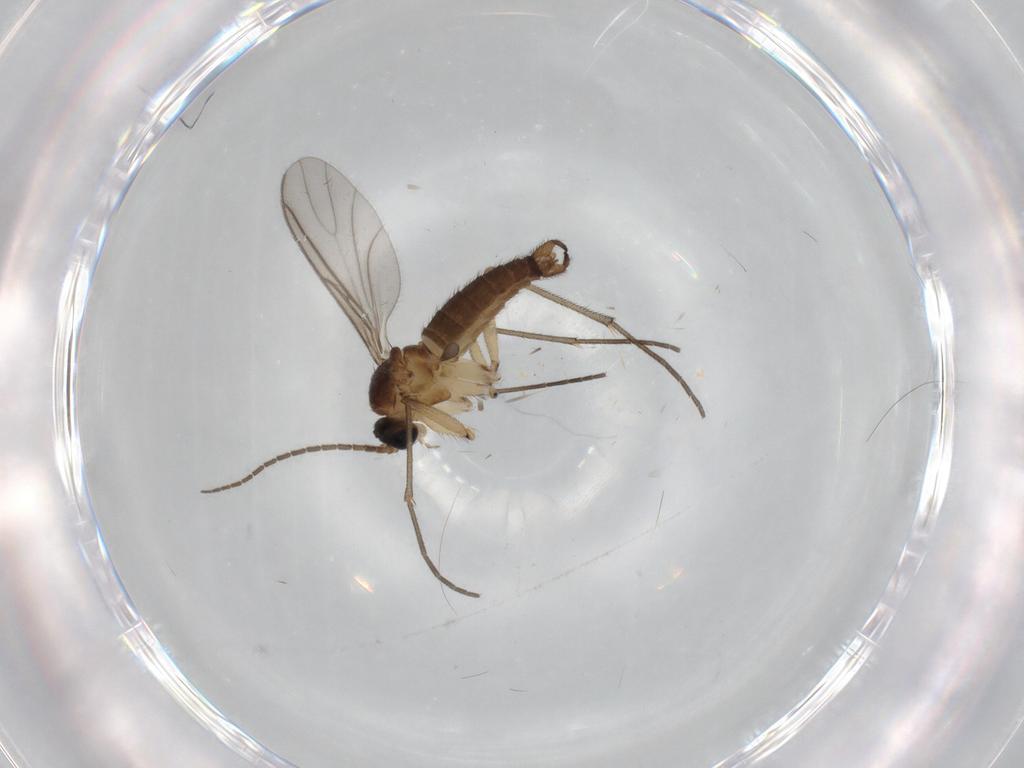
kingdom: Animalia
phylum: Arthropoda
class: Insecta
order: Diptera
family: Sciaridae
